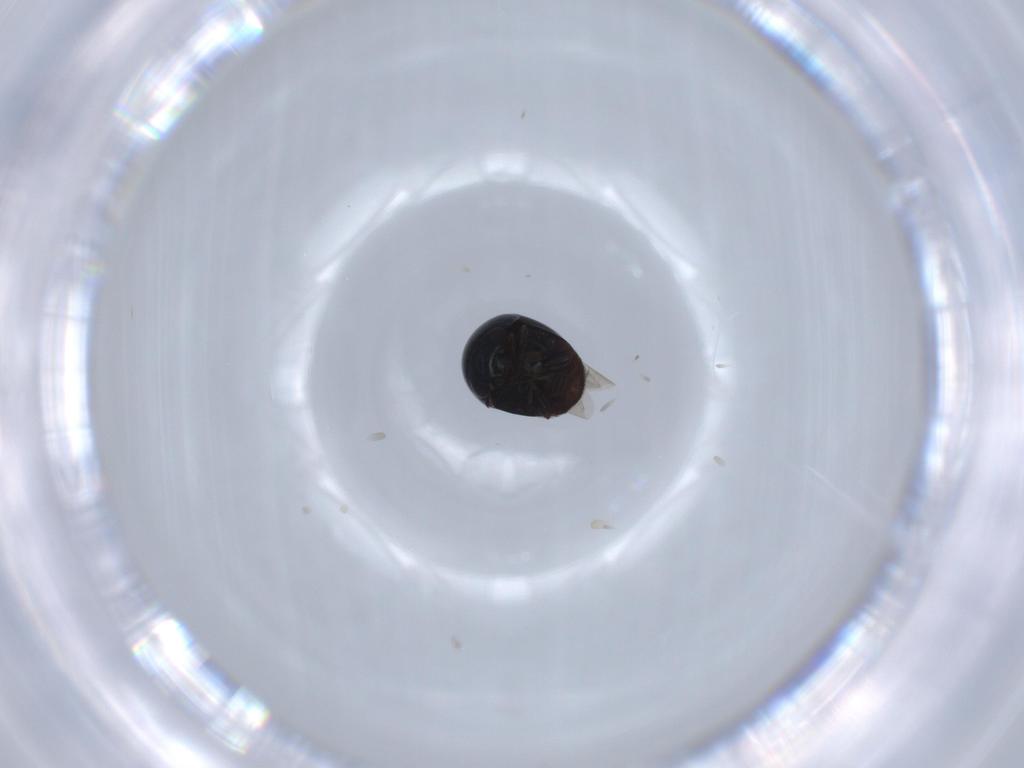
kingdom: Animalia
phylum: Arthropoda
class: Insecta
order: Coleoptera
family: Cybocephalidae
